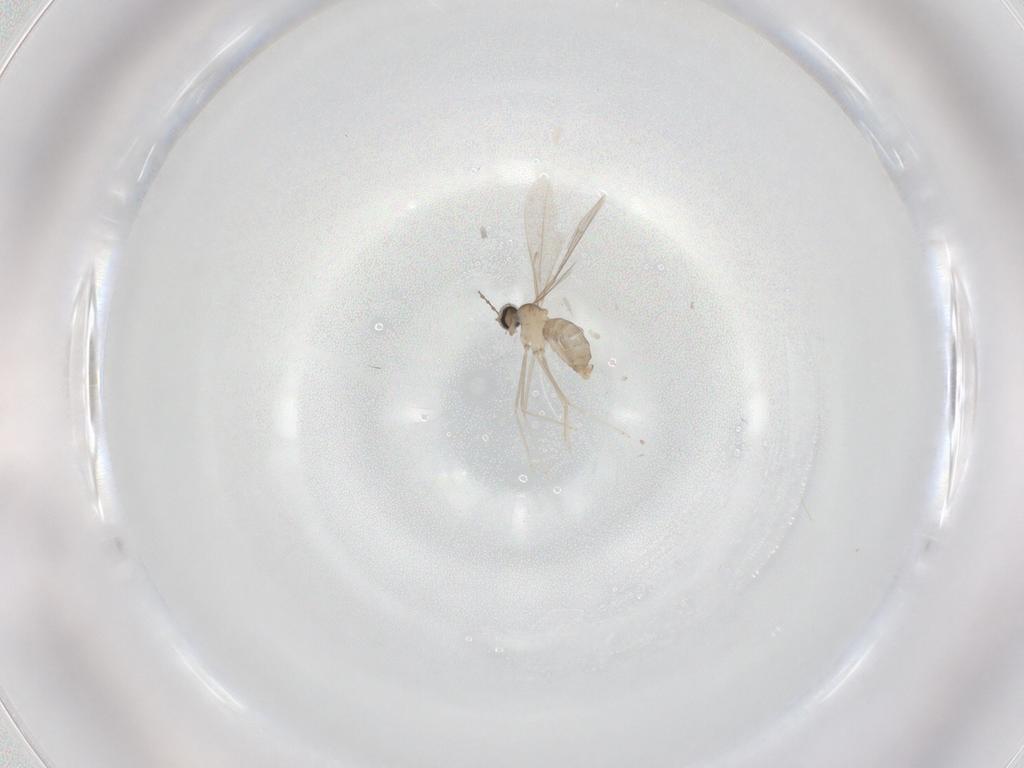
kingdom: Animalia
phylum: Arthropoda
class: Insecta
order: Diptera
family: Cecidomyiidae
